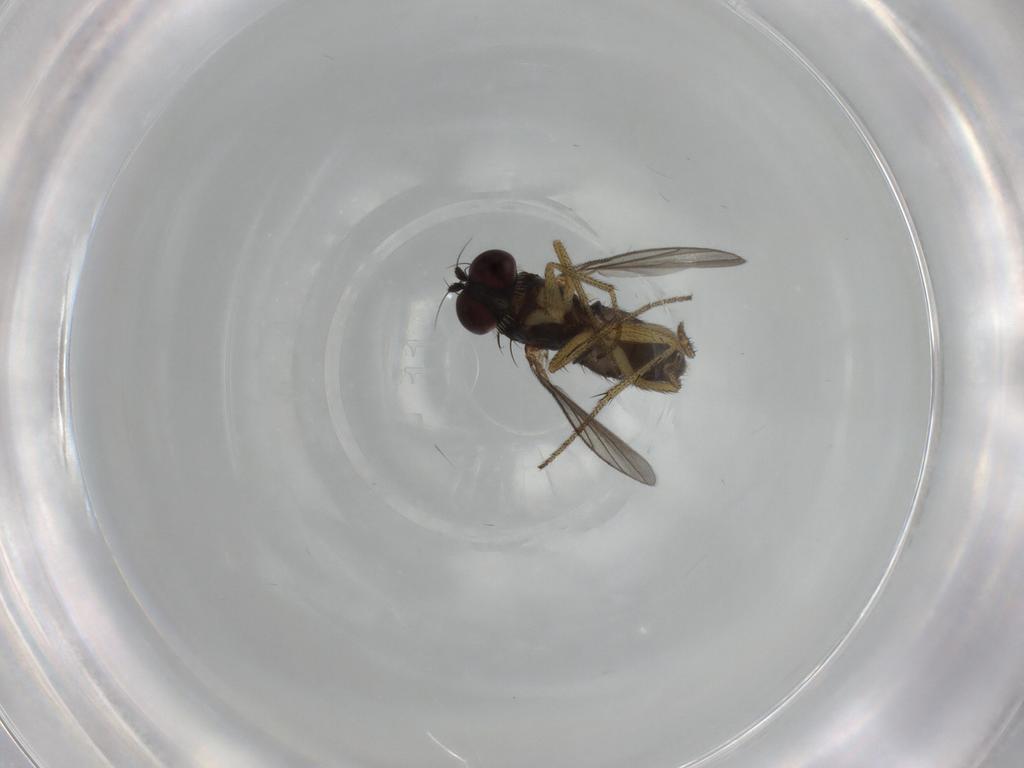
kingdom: Animalia
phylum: Arthropoda
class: Insecta
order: Diptera
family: Dolichopodidae
